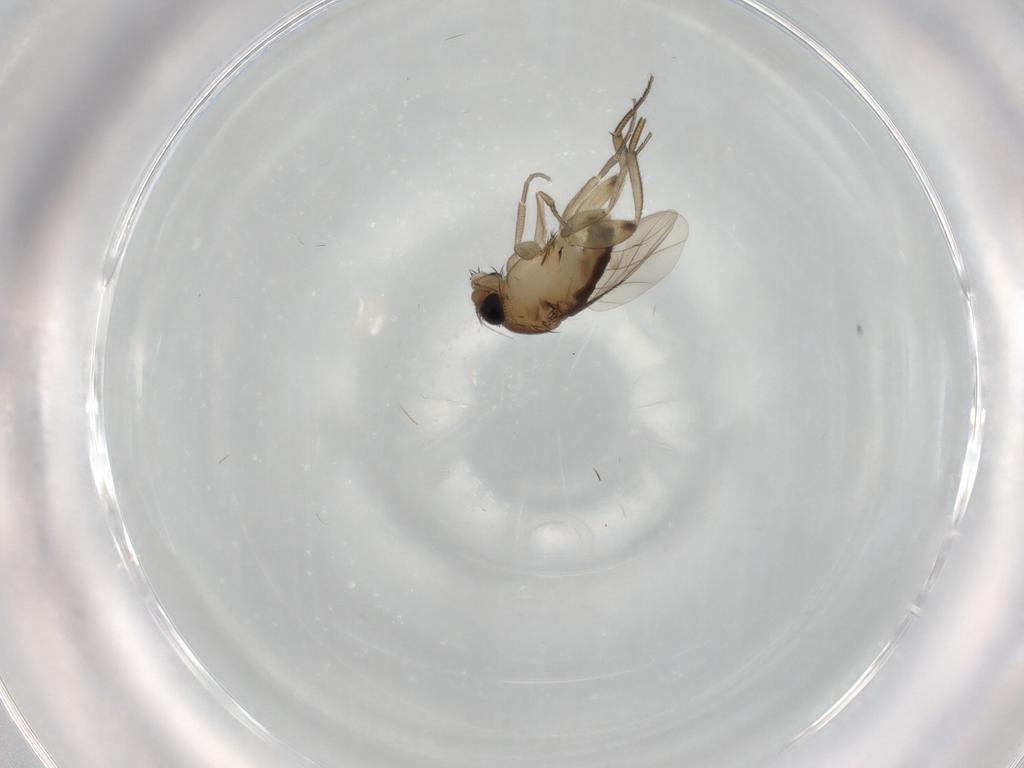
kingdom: Animalia
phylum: Arthropoda
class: Insecta
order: Diptera
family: Phoridae
